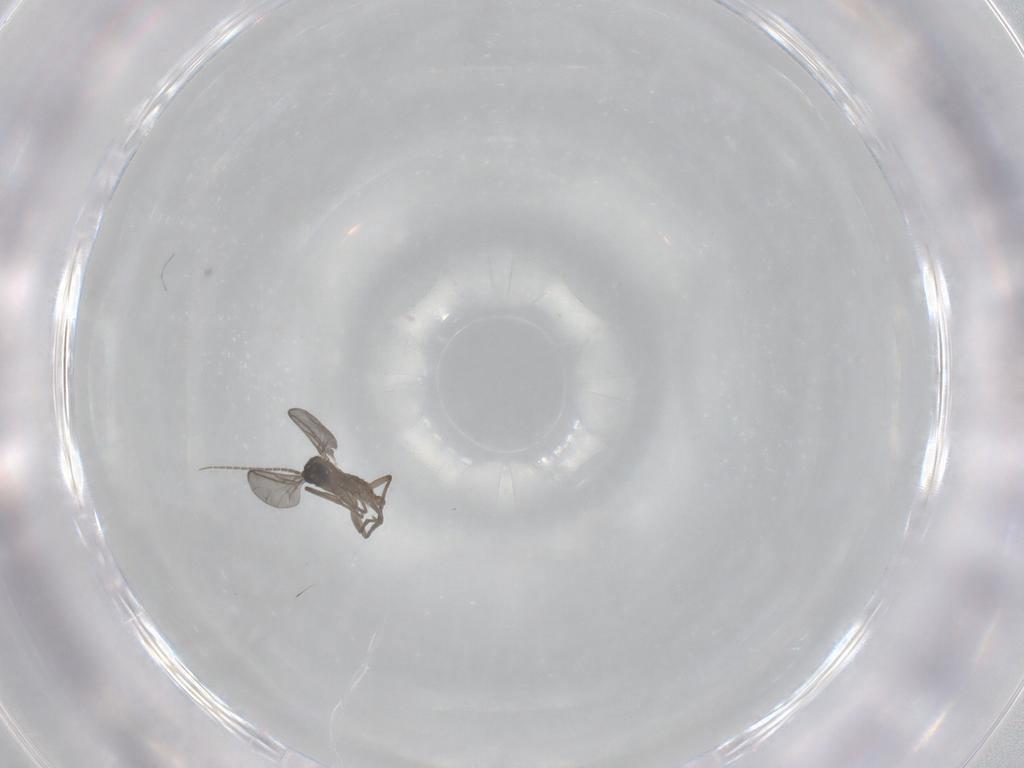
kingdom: Animalia
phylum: Arthropoda
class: Insecta
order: Diptera
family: Sciaridae
